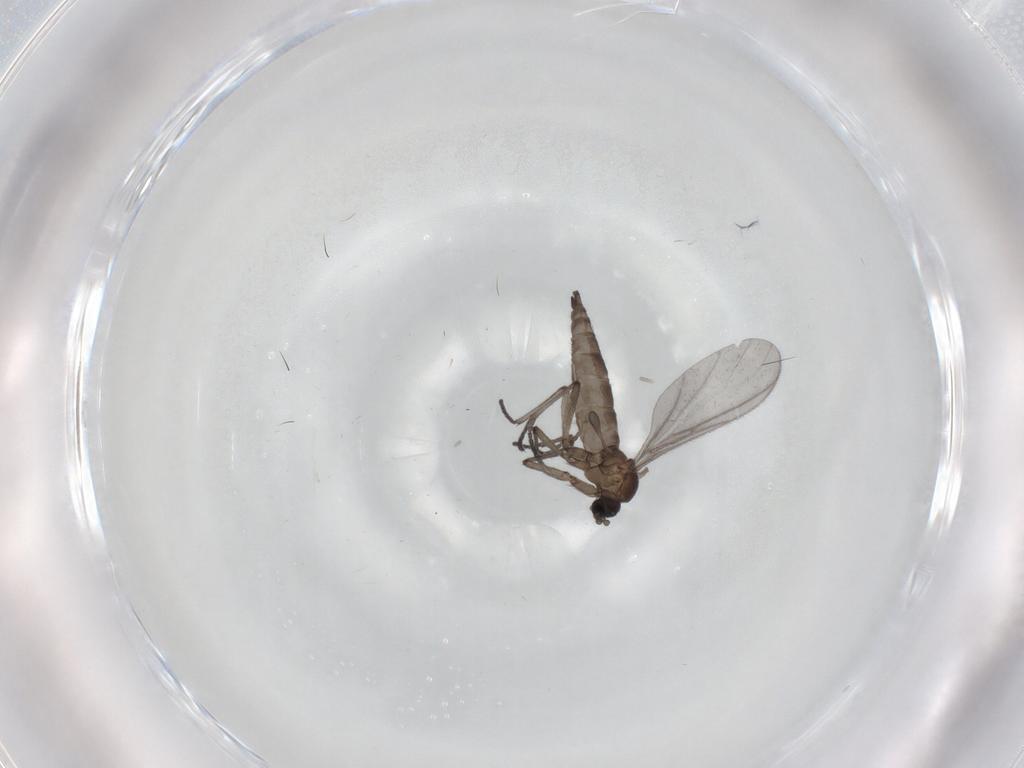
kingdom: Animalia
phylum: Arthropoda
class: Insecta
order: Diptera
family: Sciaridae
